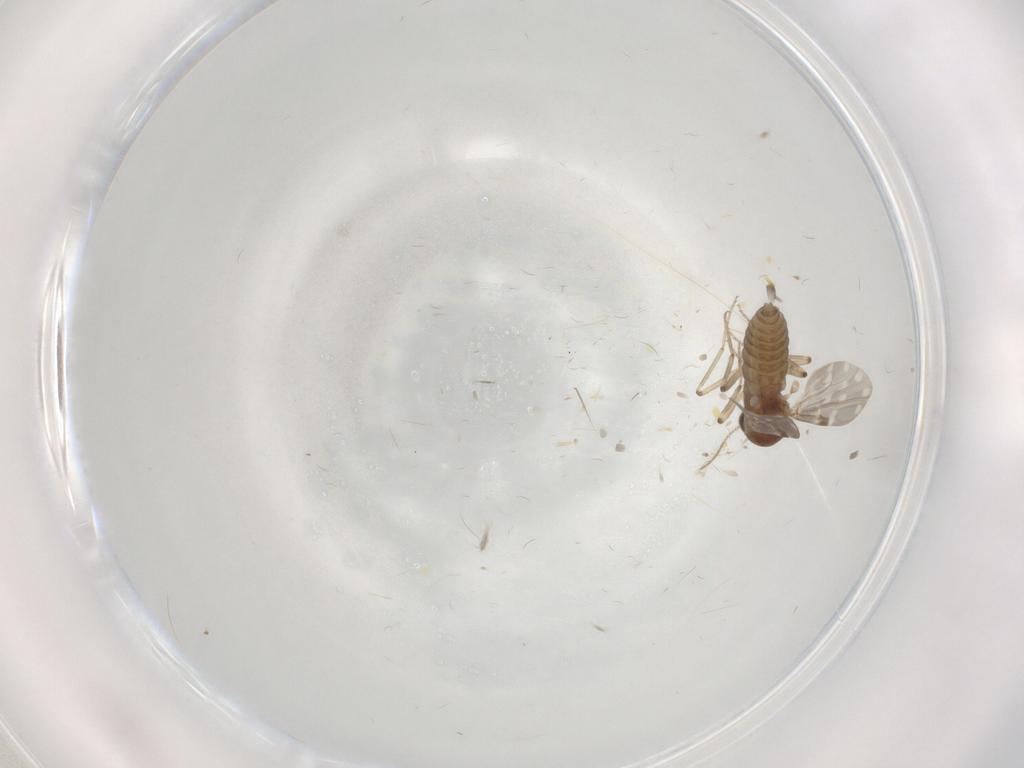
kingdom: Animalia
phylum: Arthropoda
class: Insecta
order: Diptera
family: Ceratopogonidae
